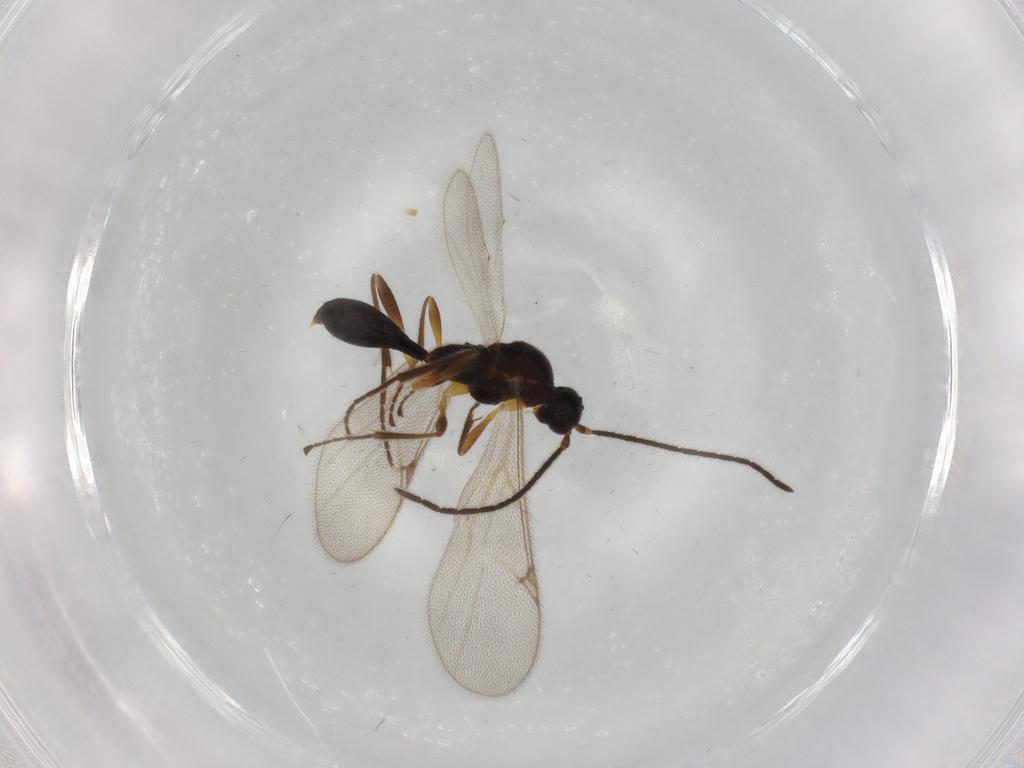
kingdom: Animalia
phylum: Arthropoda
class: Insecta
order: Hymenoptera
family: Proctotrupidae
